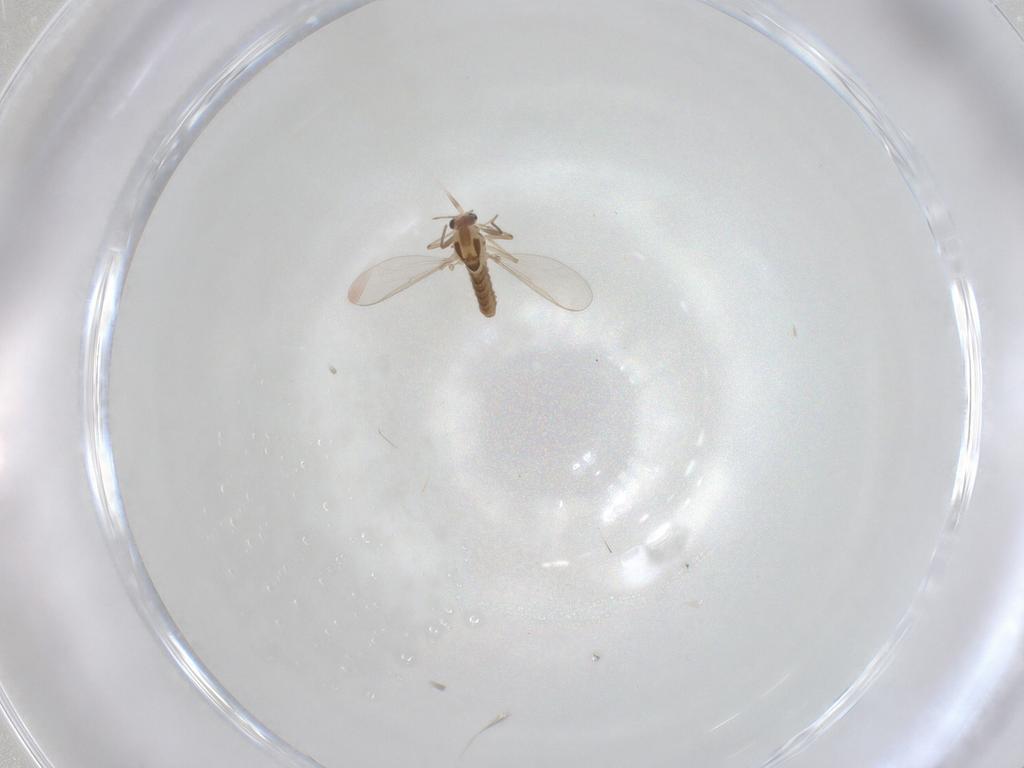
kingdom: Animalia
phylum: Arthropoda
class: Insecta
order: Diptera
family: Cecidomyiidae
